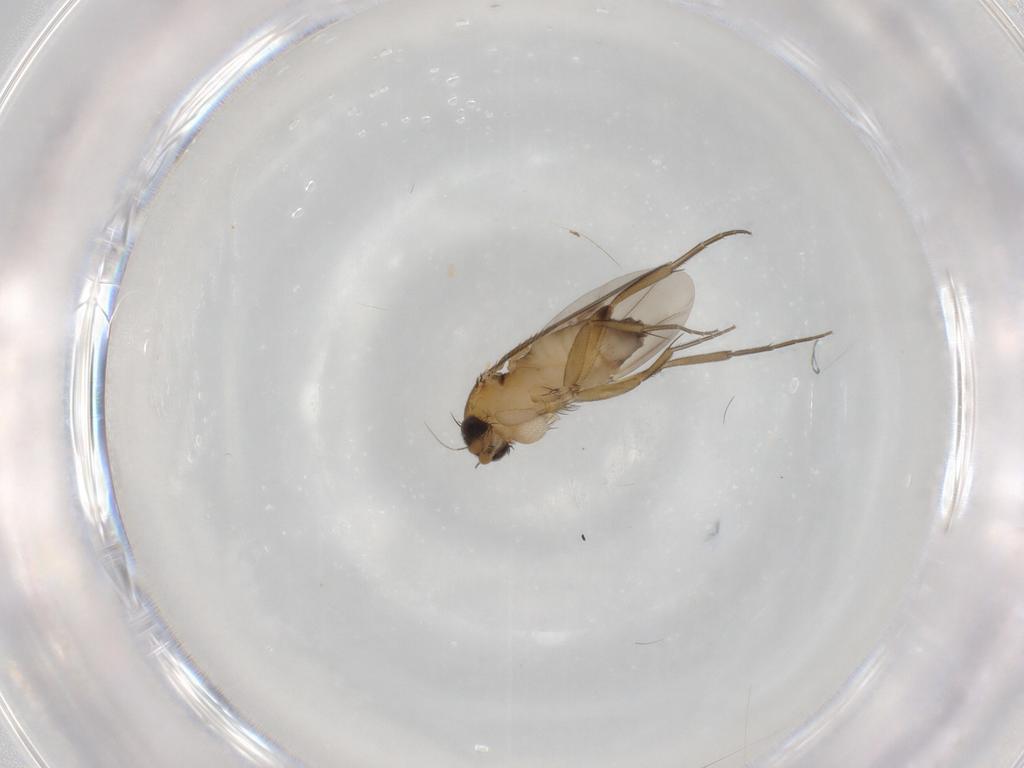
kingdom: Animalia
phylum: Arthropoda
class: Insecta
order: Diptera
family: Phoridae
